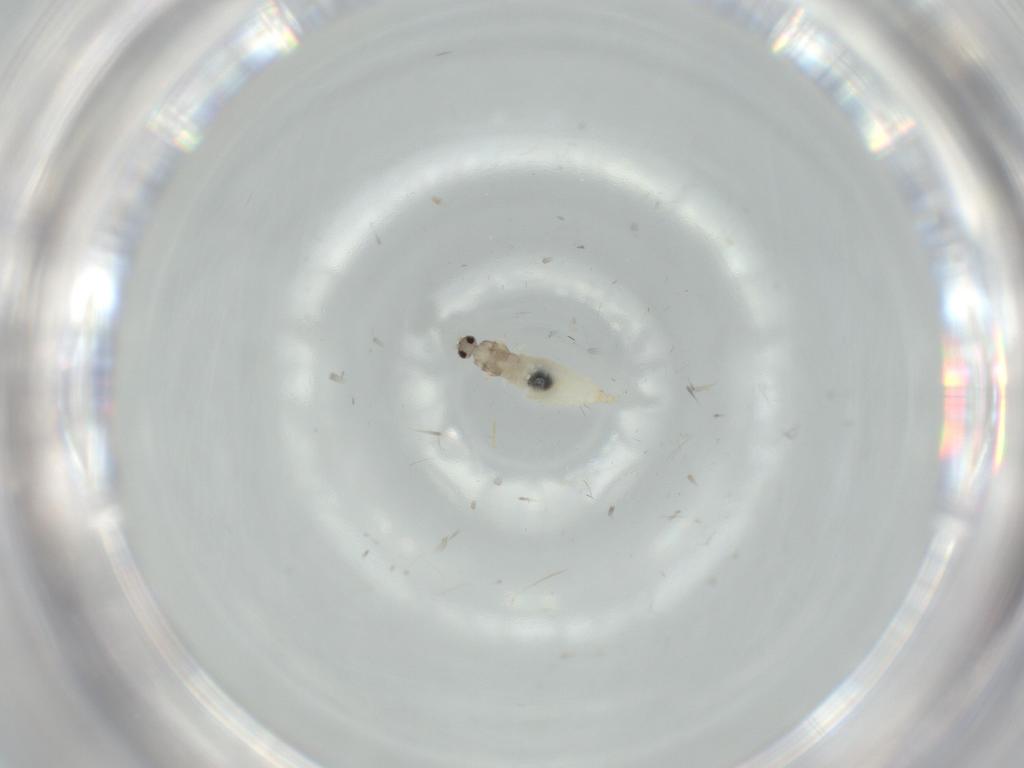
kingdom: Animalia
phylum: Arthropoda
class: Insecta
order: Diptera
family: Cecidomyiidae
